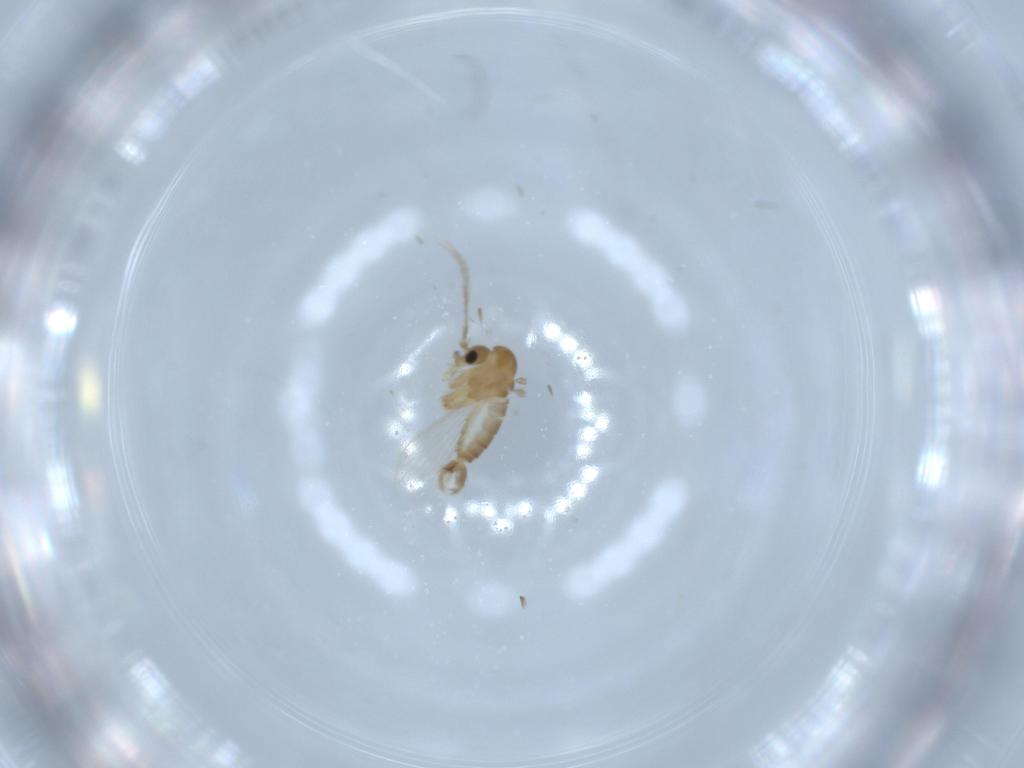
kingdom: Animalia
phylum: Arthropoda
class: Insecta
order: Diptera
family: Psychodidae
